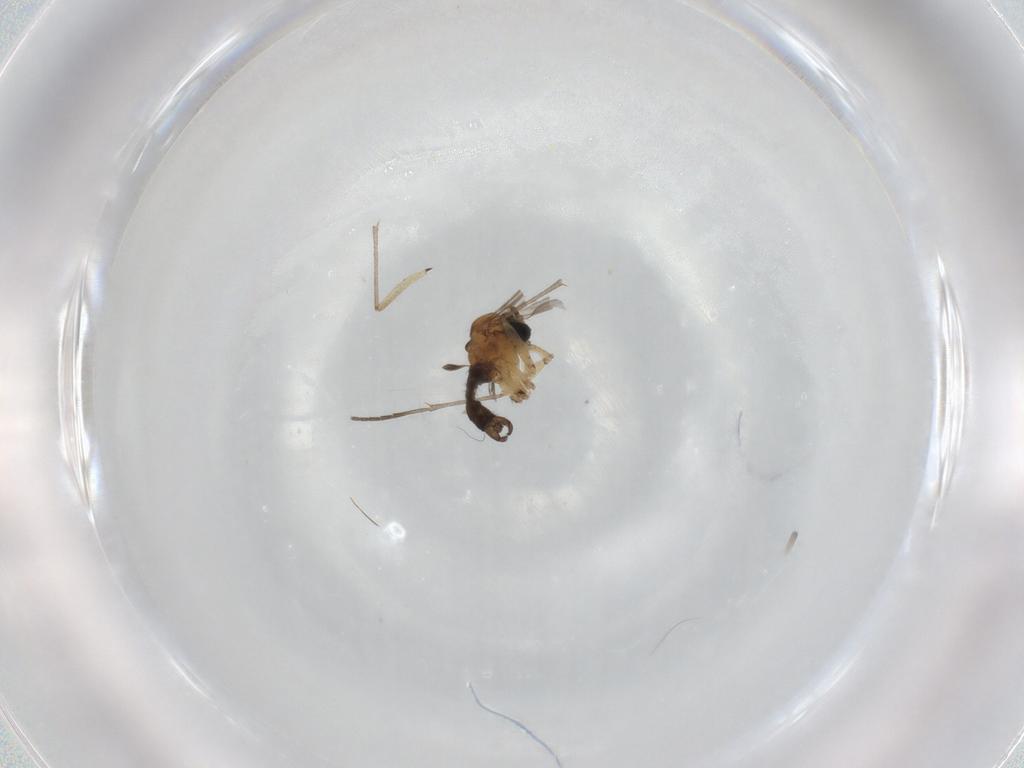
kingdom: Animalia
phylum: Arthropoda
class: Insecta
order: Diptera
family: Sciaridae
